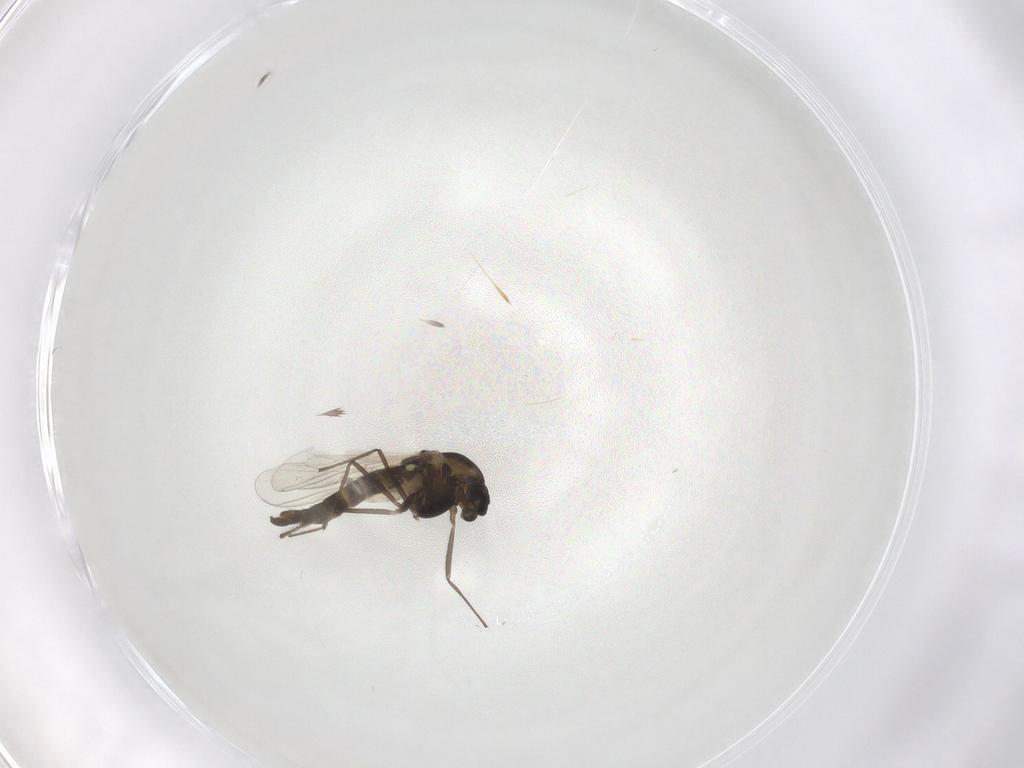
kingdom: Animalia
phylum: Arthropoda
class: Insecta
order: Diptera
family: Chironomidae
